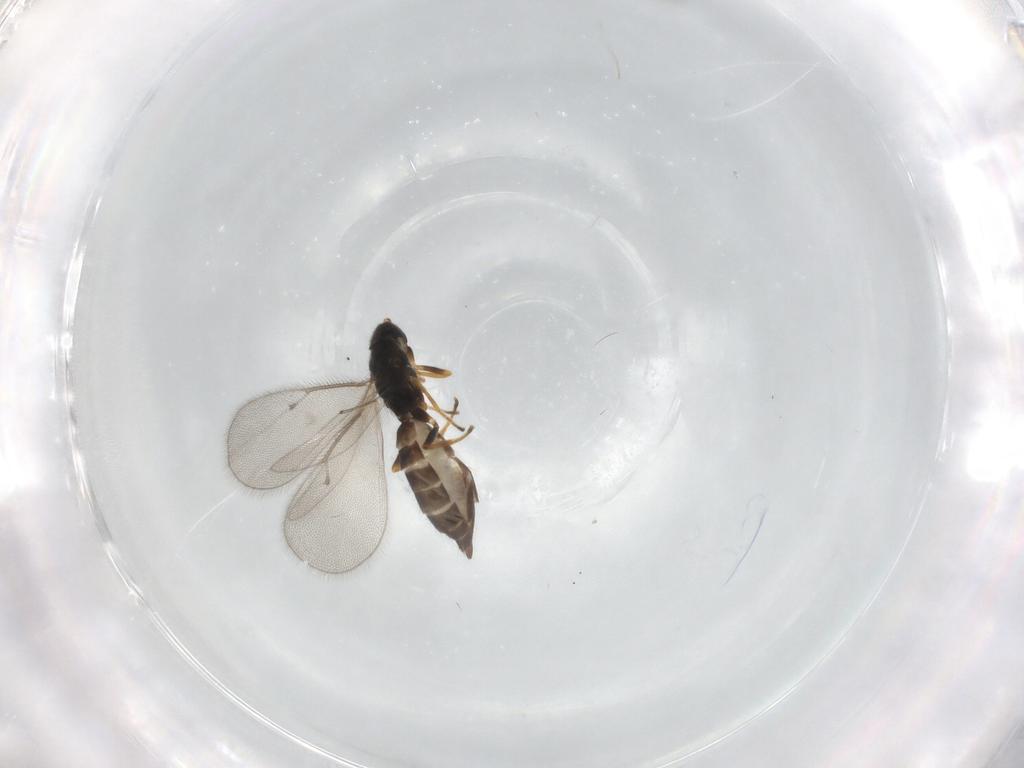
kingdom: Animalia
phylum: Arthropoda
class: Insecta
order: Hymenoptera
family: Eulophidae
